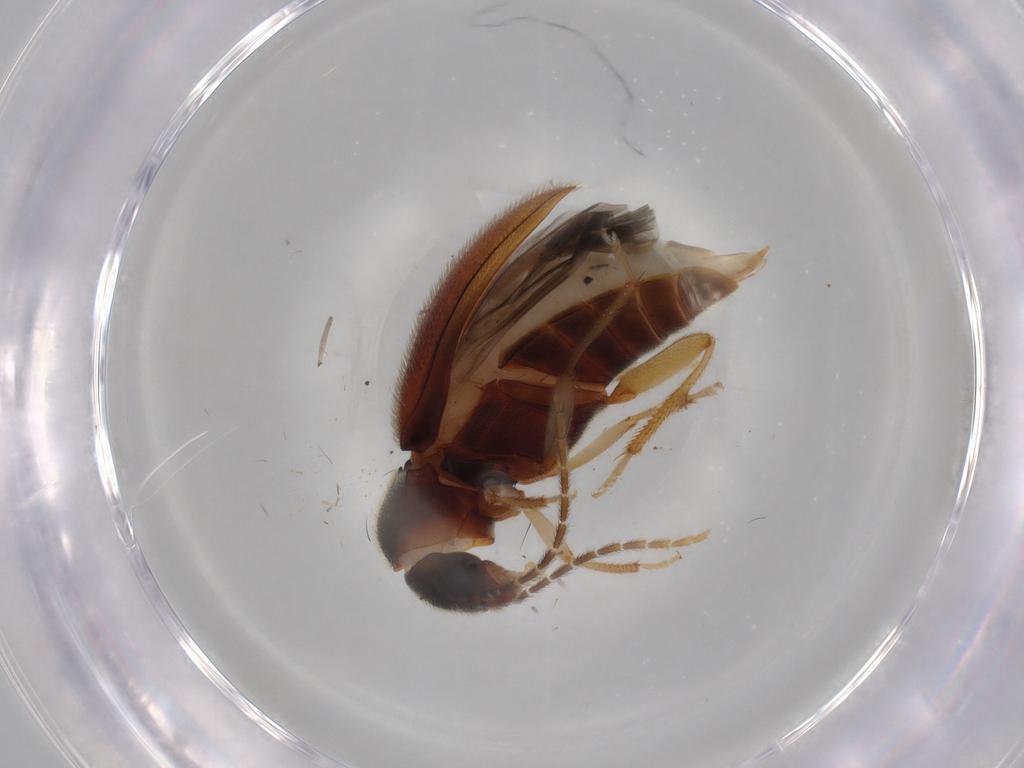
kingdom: Animalia
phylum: Arthropoda
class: Insecta
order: Coleoptera
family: Ptilodactylidae
